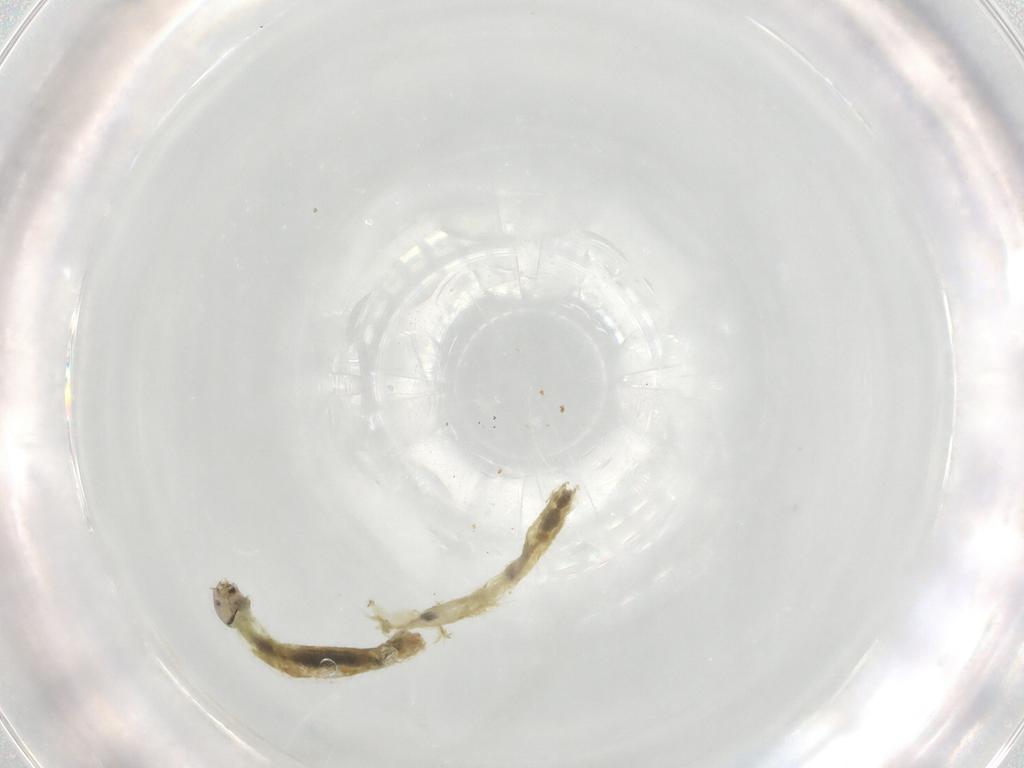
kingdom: Animalia
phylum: Arthropoda
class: Insecta
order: Diptera
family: Chironomidae
